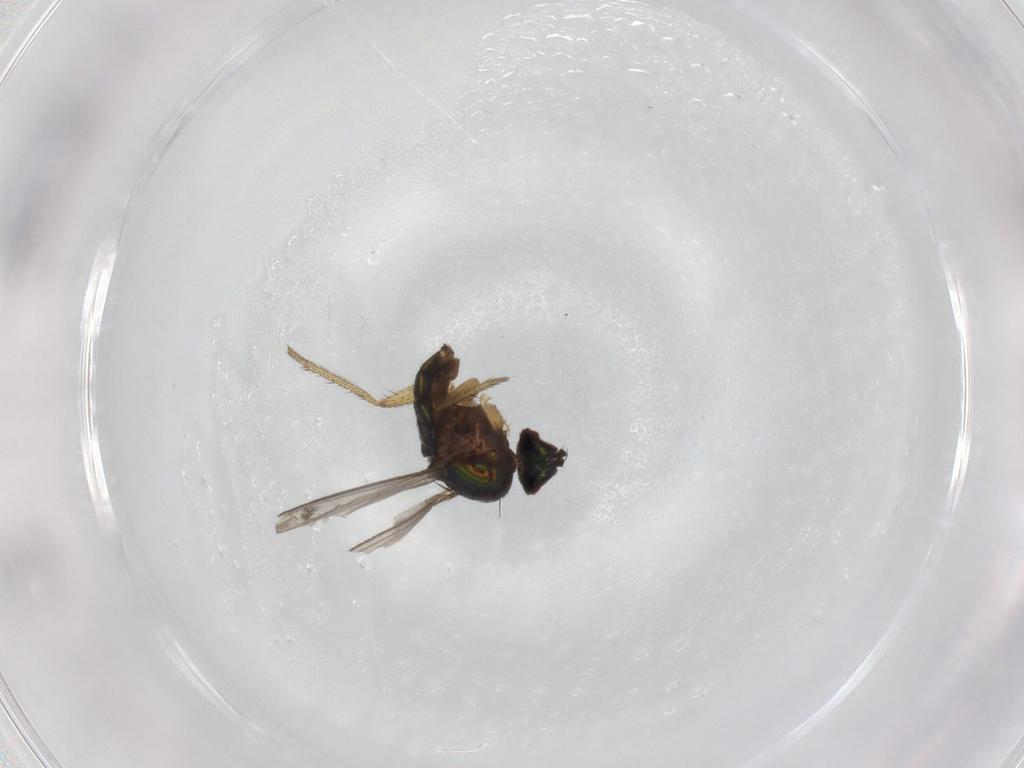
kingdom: Animalia
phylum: Arthropoda
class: Insecta
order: Diptera
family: Dolichopodidae
